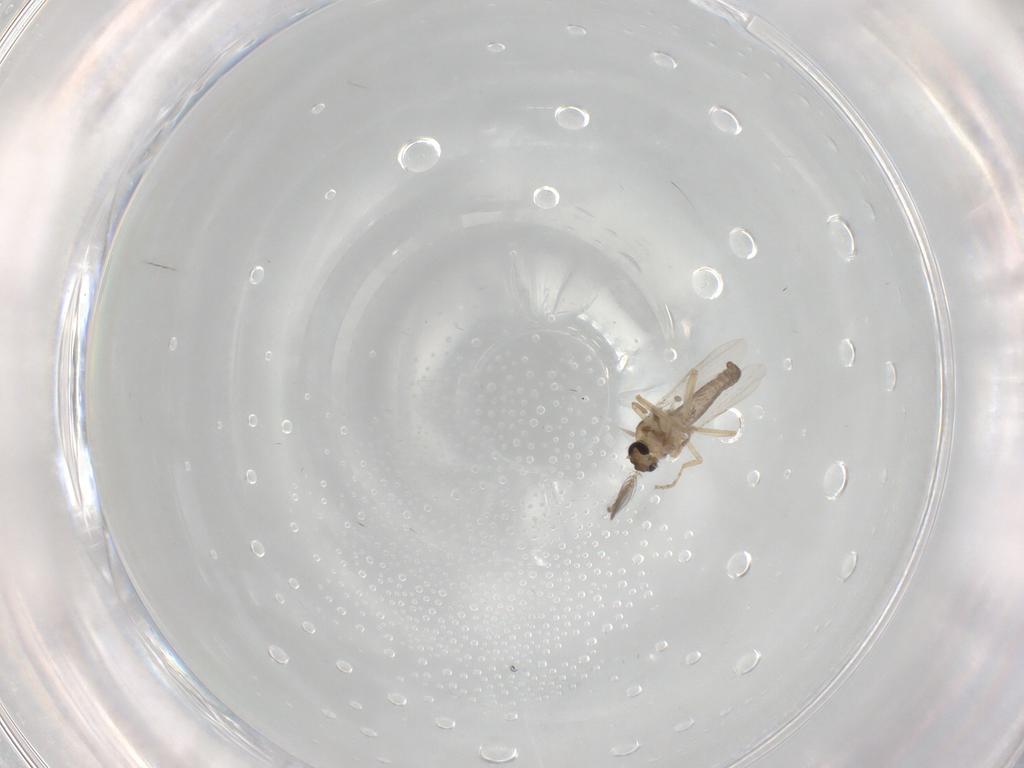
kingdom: Animalia
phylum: Arthropoda
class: Insecta
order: Diptera
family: Ceratopogonidae
